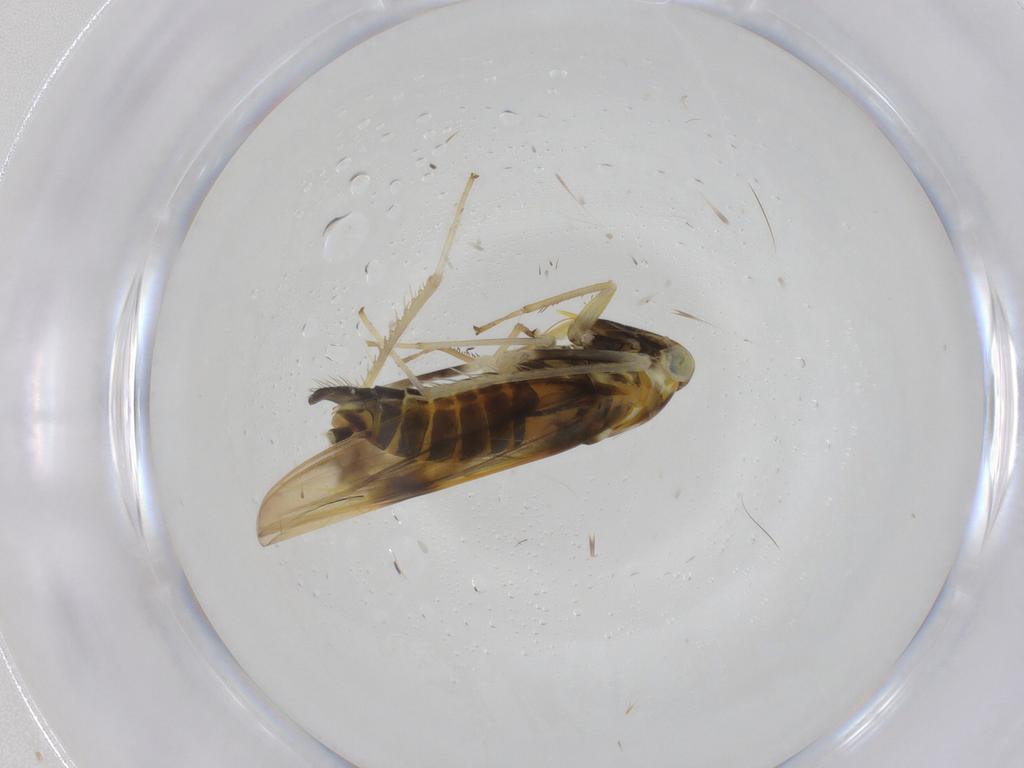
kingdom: Animalia
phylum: Arthropoda
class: Insecta
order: Hemiptera
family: Cicadellidae
